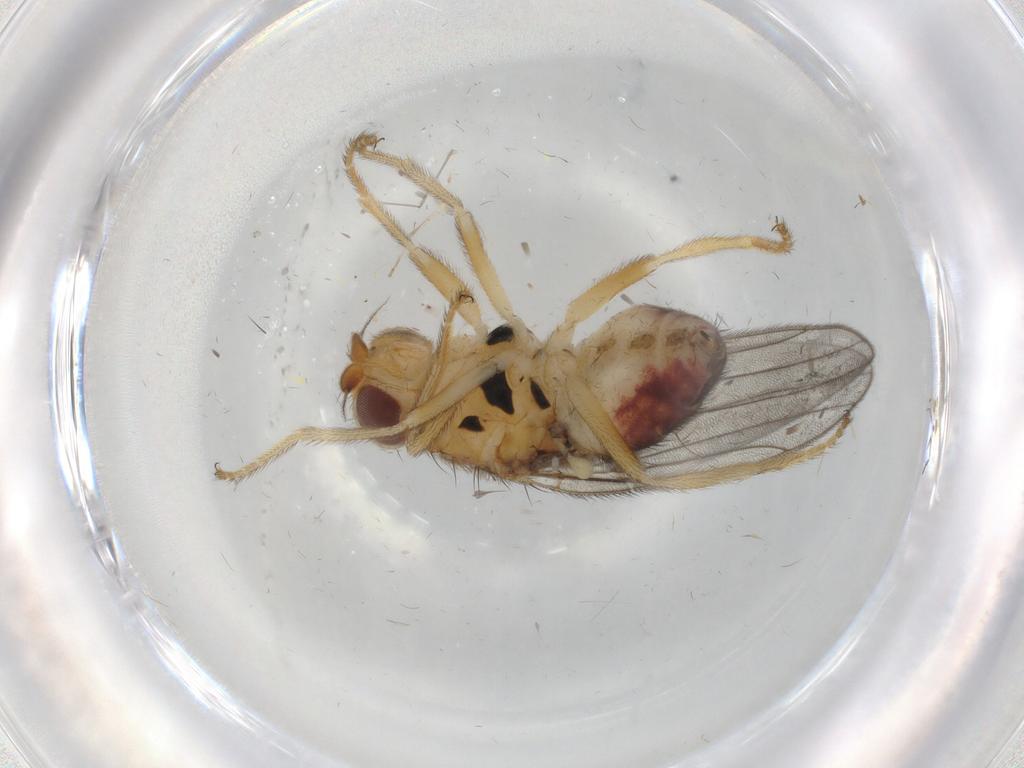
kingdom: Animalia
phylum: Arthropoda
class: Insecta
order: Diptera
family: Chloropidae
